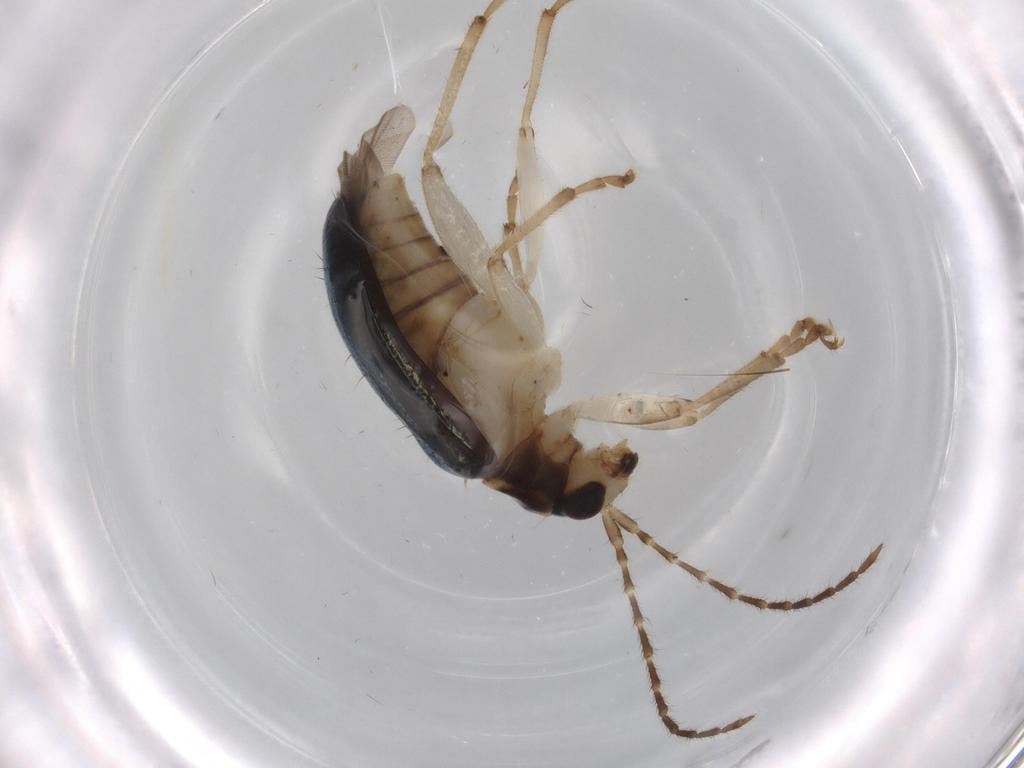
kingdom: Animalia
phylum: Arthropoda
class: Insecta
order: Coleoptera
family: Chrysomelidae
